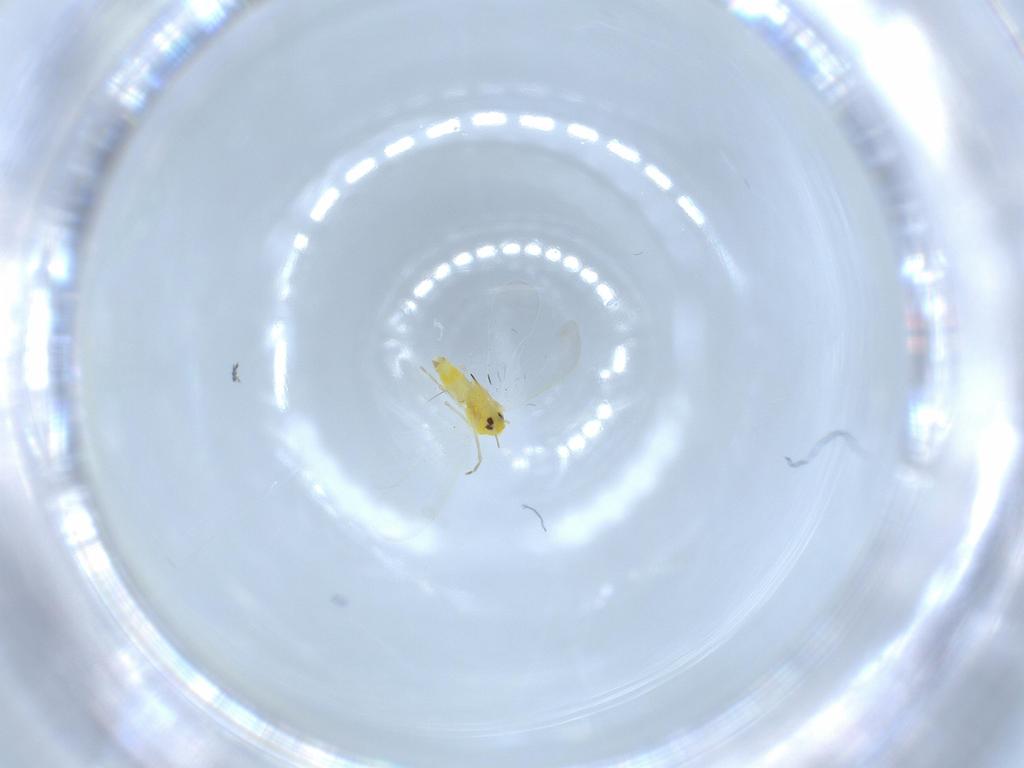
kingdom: Animalia
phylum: Arthropoda
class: Insecta
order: Hemiptera
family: Aleyrodidae
